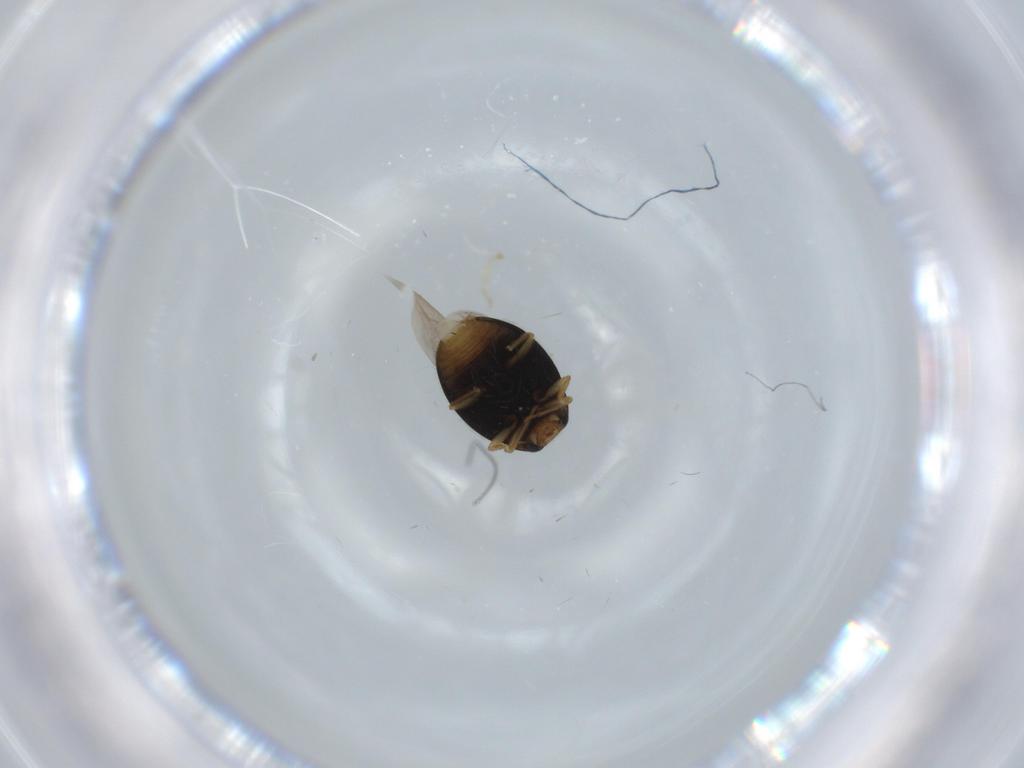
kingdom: Animalia
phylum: Arthropoda
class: Insecta
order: Coleoptera
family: Coccinellidae
